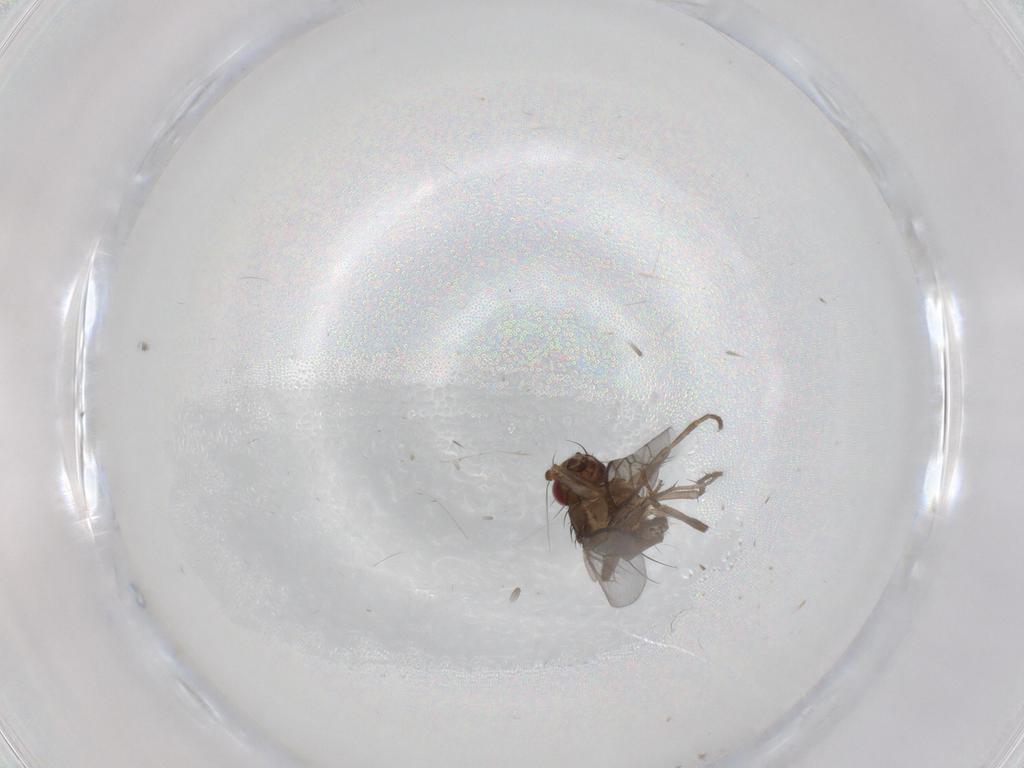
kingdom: Animalia
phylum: Arthropoda
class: Insecta
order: Diptera
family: Sphaeroceridae
